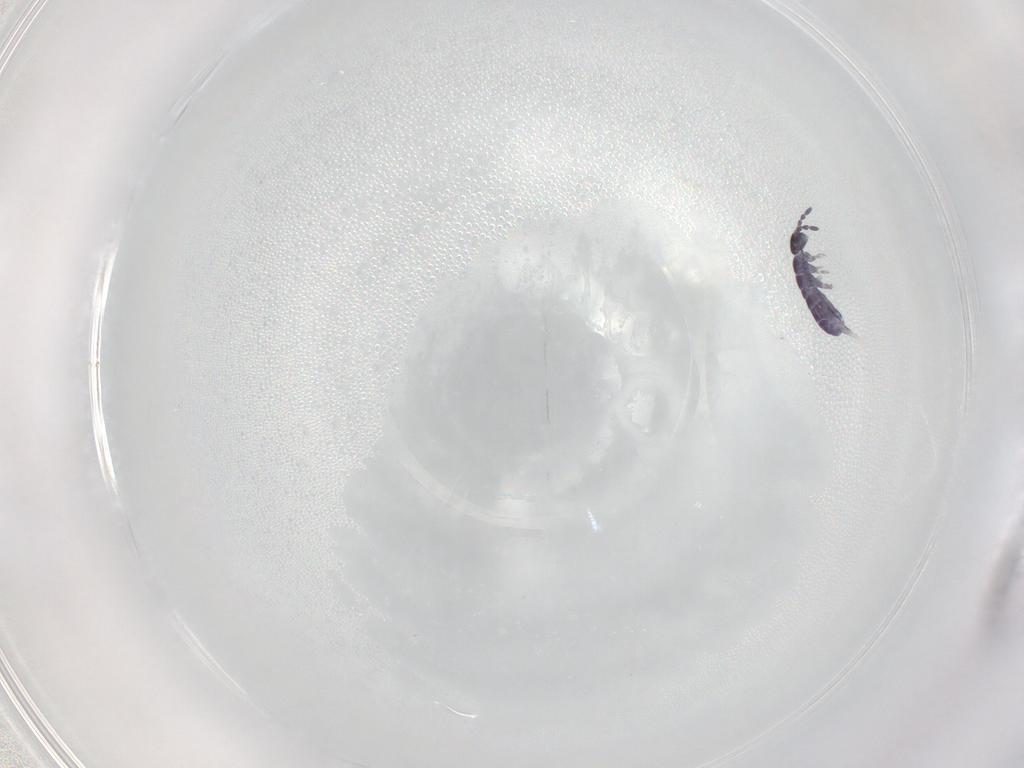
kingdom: Animalia
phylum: Arthropoda
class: Collembola
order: Entomobryomorpha
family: Isotomidae
